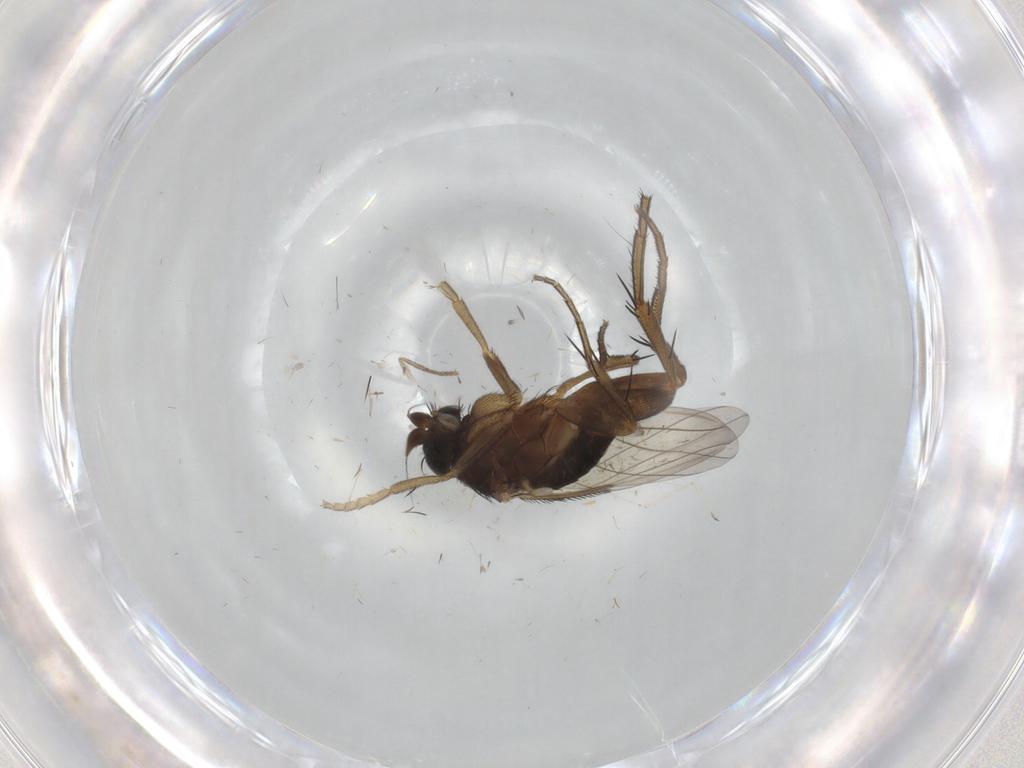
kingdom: Animalia
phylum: Arthropoda
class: Insecta
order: Diptera
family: Cecidomyiidae
